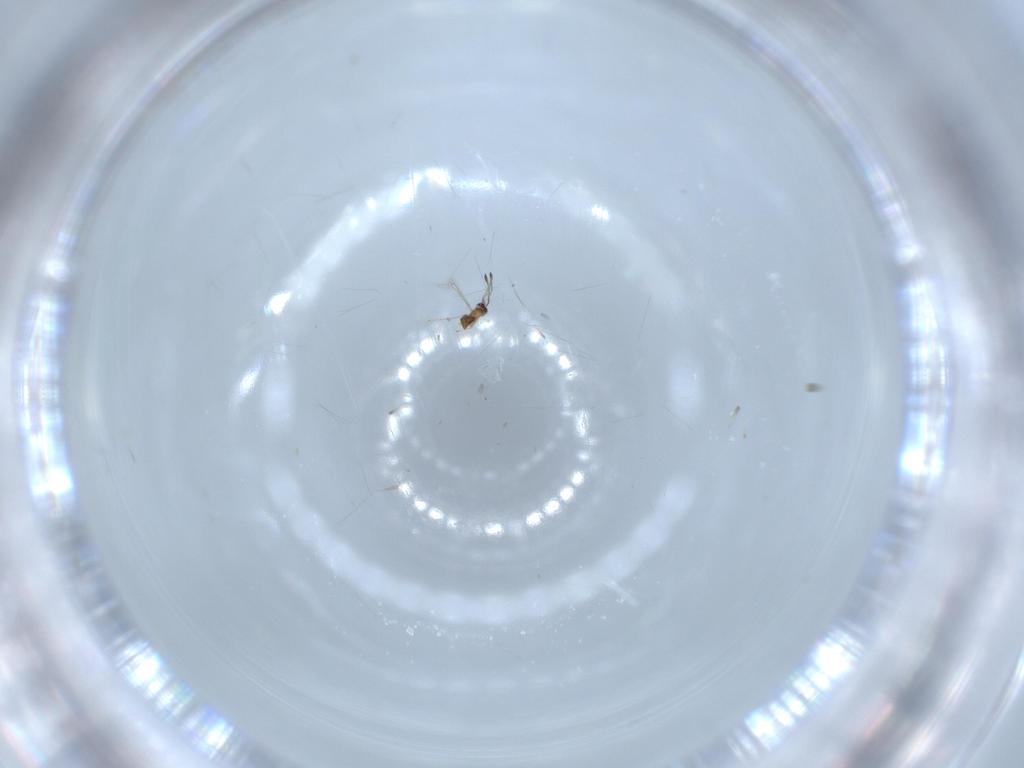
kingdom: Animalia
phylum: Arthropoda
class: Insecta
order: Hymenoptera
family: Mymaridae
